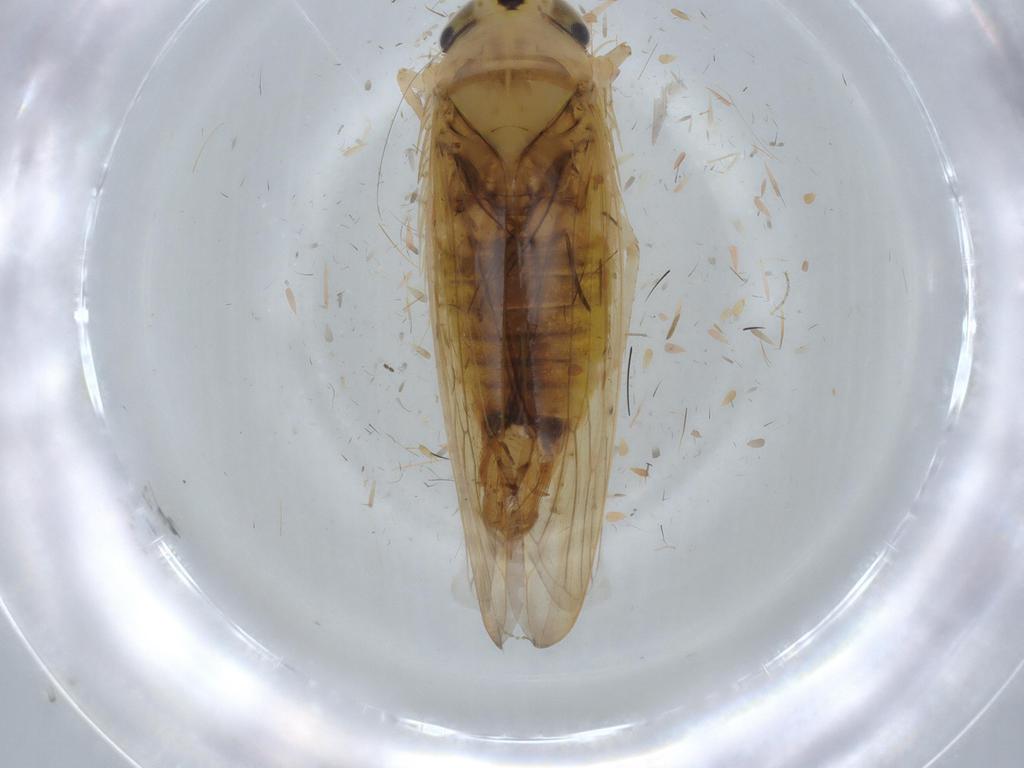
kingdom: Animalia
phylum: Arthropoda
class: Insecta
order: Hemiptera
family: Cicadellidae
